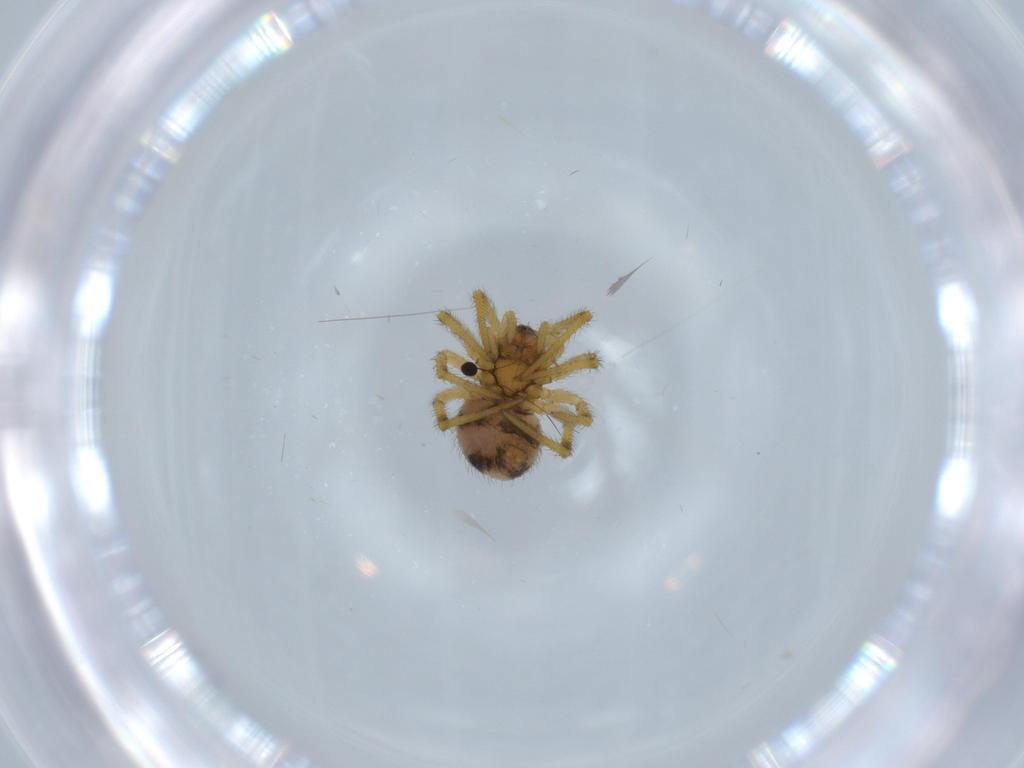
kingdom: Animalia
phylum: Arthropoda
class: Arachnida
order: Araneae
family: Theridiidae
